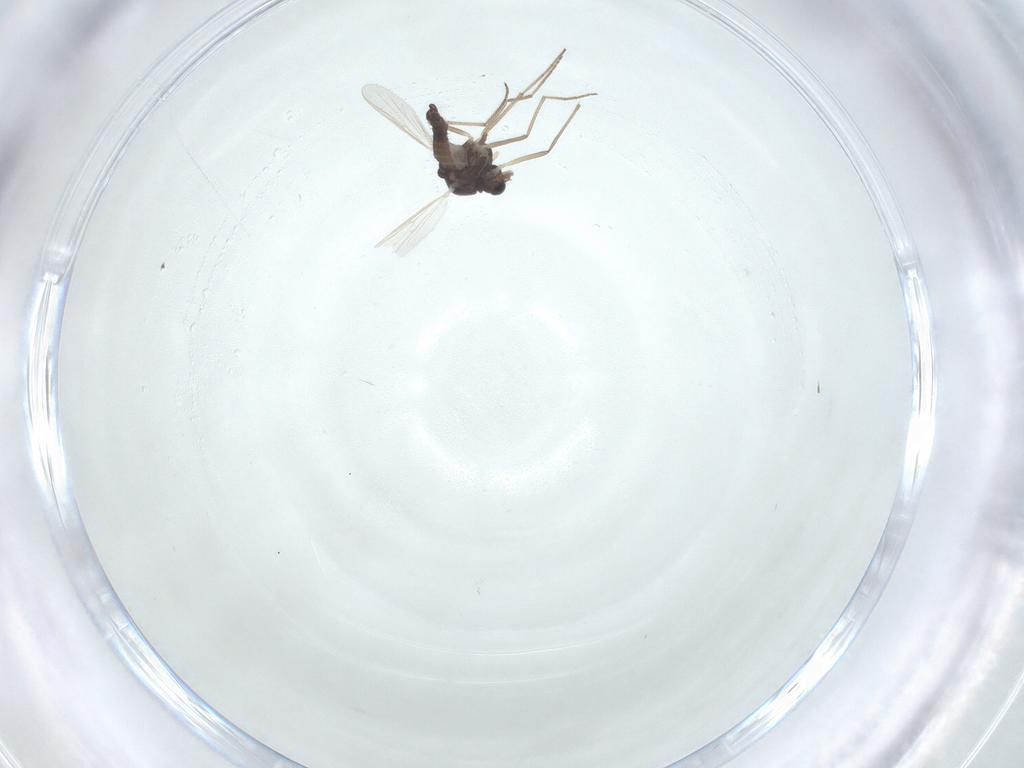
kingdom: Animalia
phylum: Arthropoda
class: Insecta
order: Diptera
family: Chironomidae
